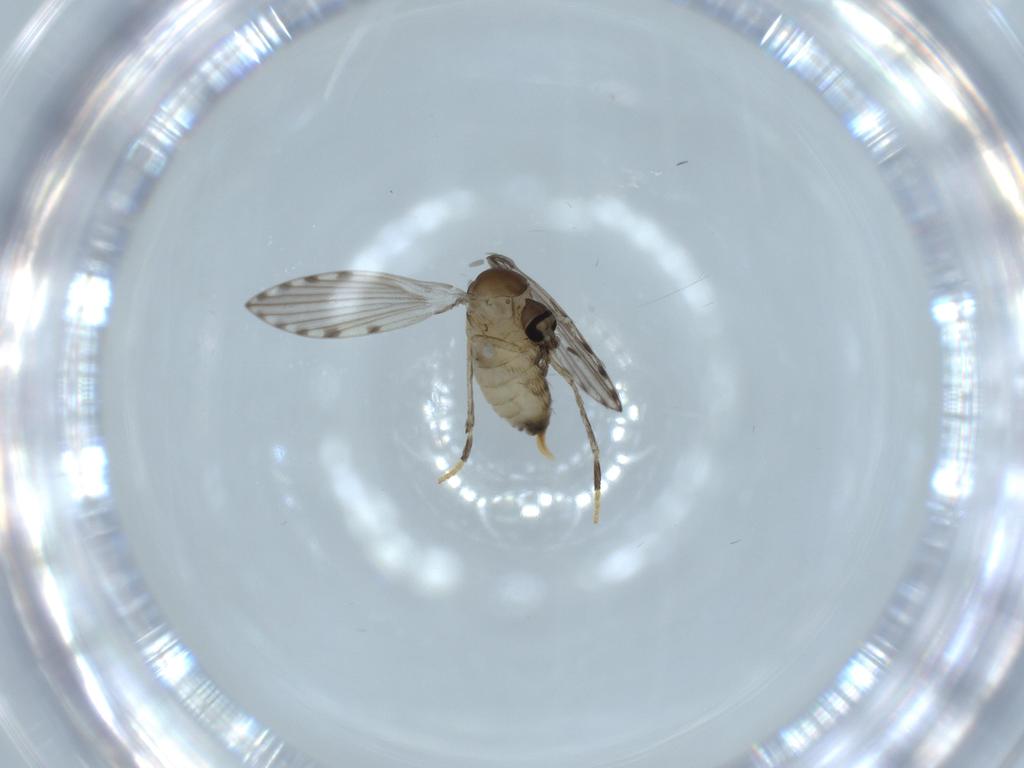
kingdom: Animalia
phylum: Arthropoda
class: Insecta
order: Diptera
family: Psychodidae
